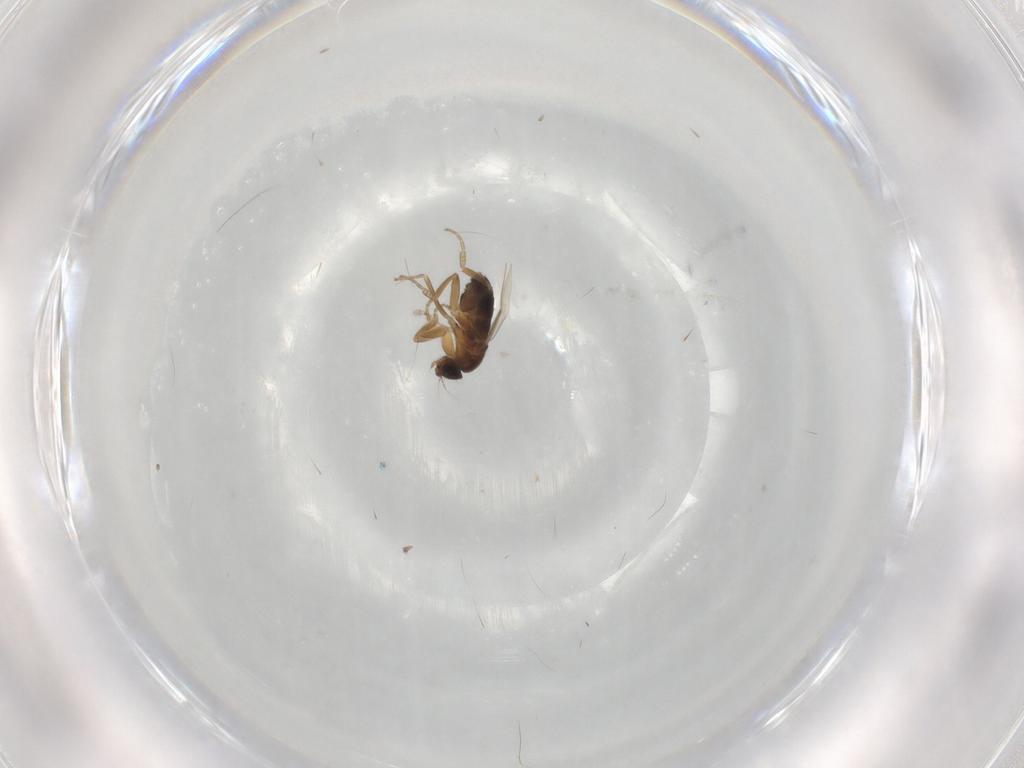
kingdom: Animalia
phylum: Arthropoda
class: Insecta
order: Diptera
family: Phoridae
